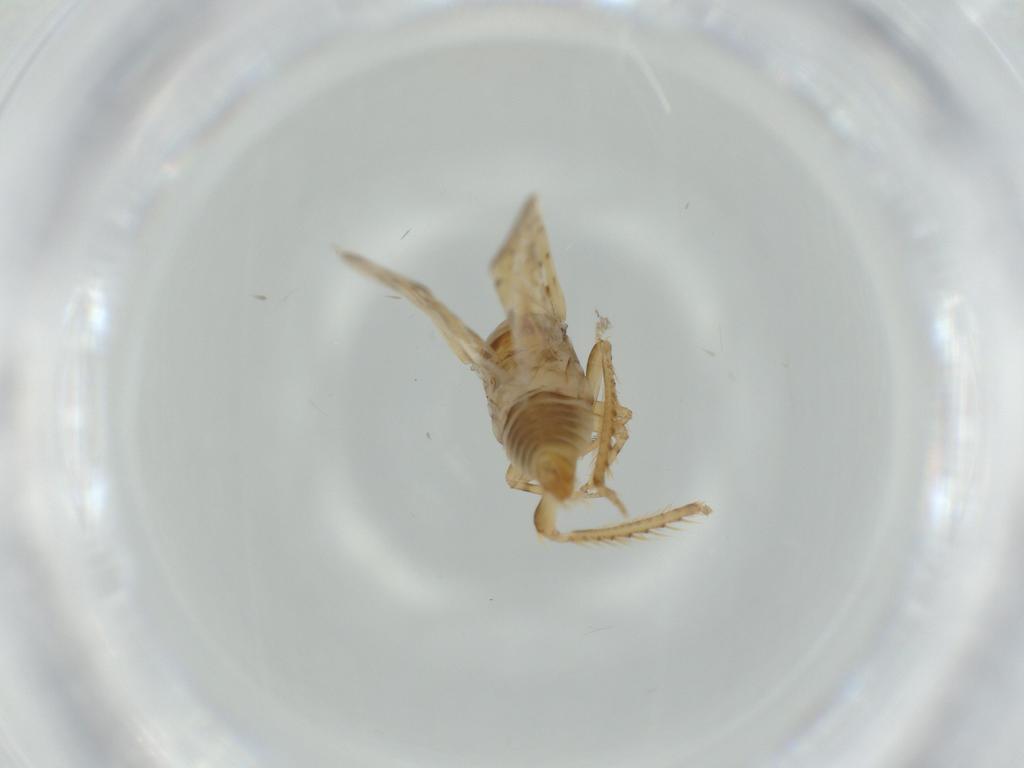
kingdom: Animalia
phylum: Arthropoda
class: Insecta
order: Hemiptera
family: Cicadellidae
